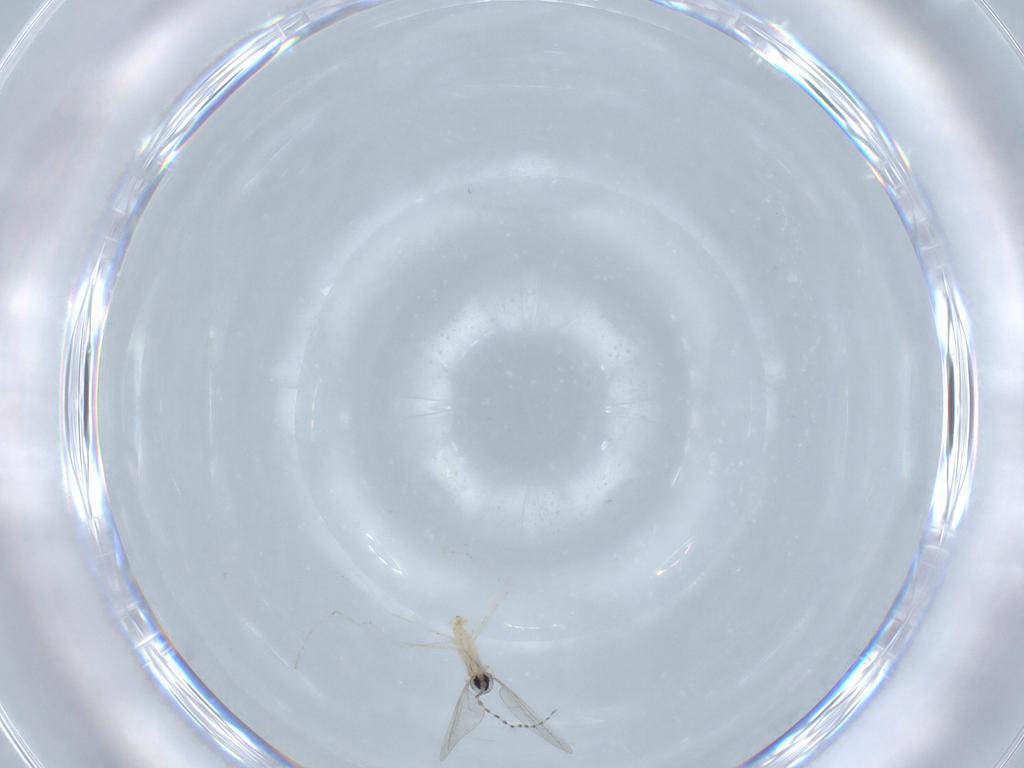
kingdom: Animalia
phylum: Arthropoda
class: Insecta
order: Diptera
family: Cecidomyiidae
